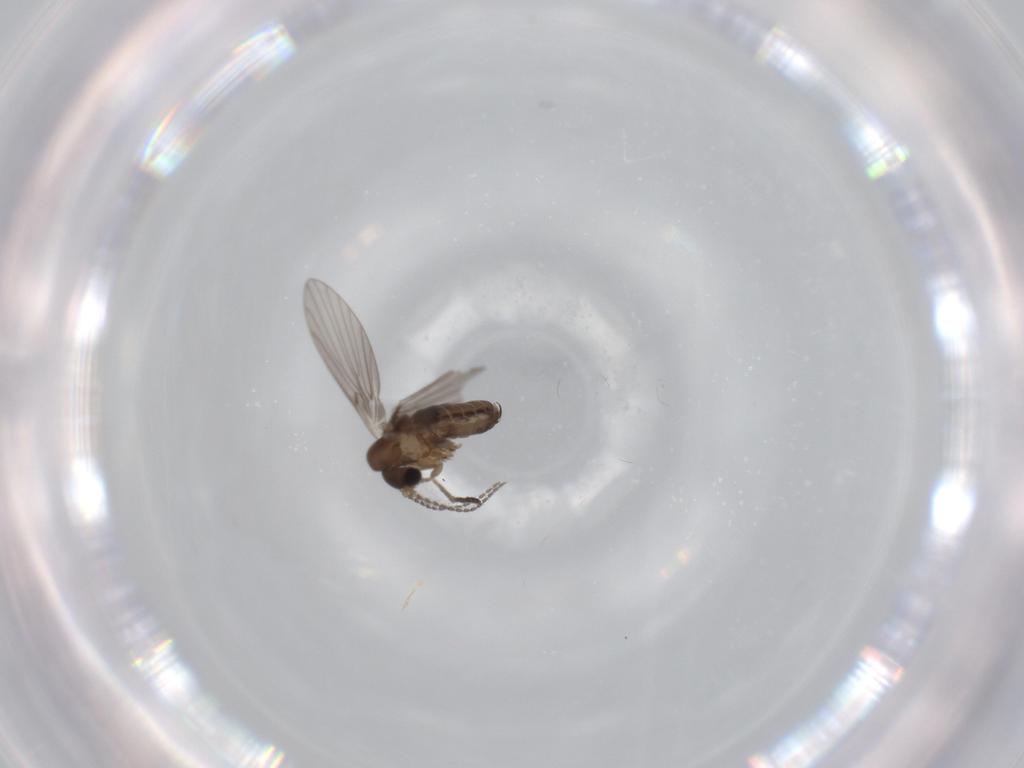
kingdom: Animalia
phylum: Arthropoda
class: Insecta
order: Diptera
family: Psychodidae
